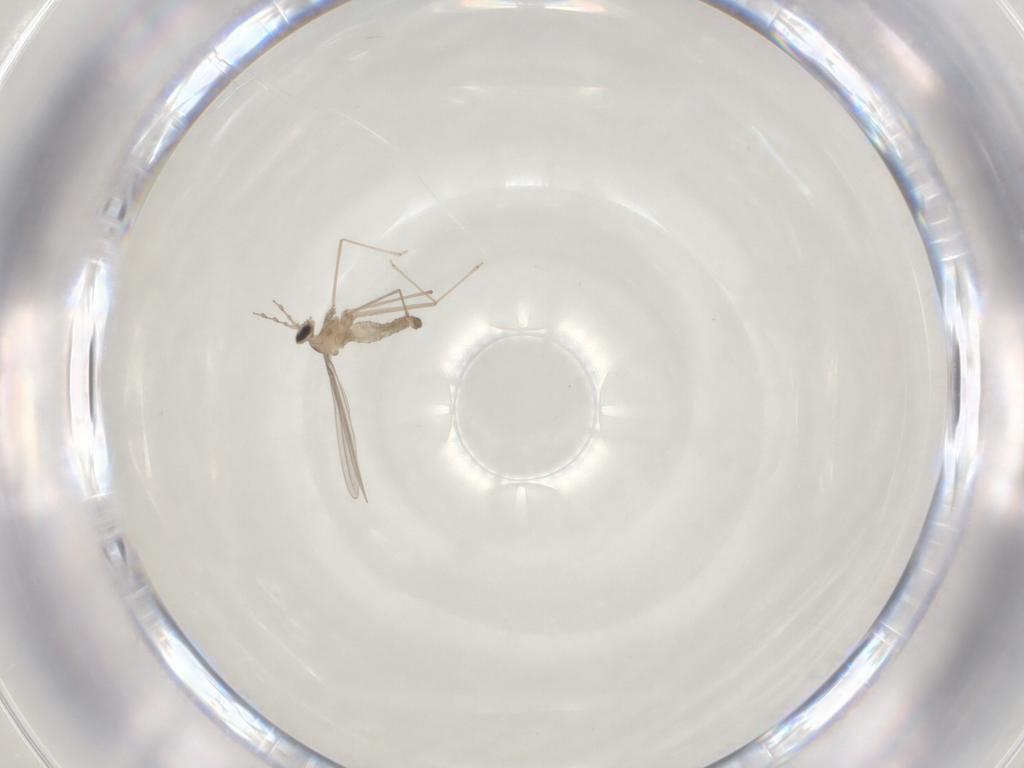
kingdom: Animalia
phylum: Arthropoda
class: Insecta
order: Diptera
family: Cecidomyiidae
